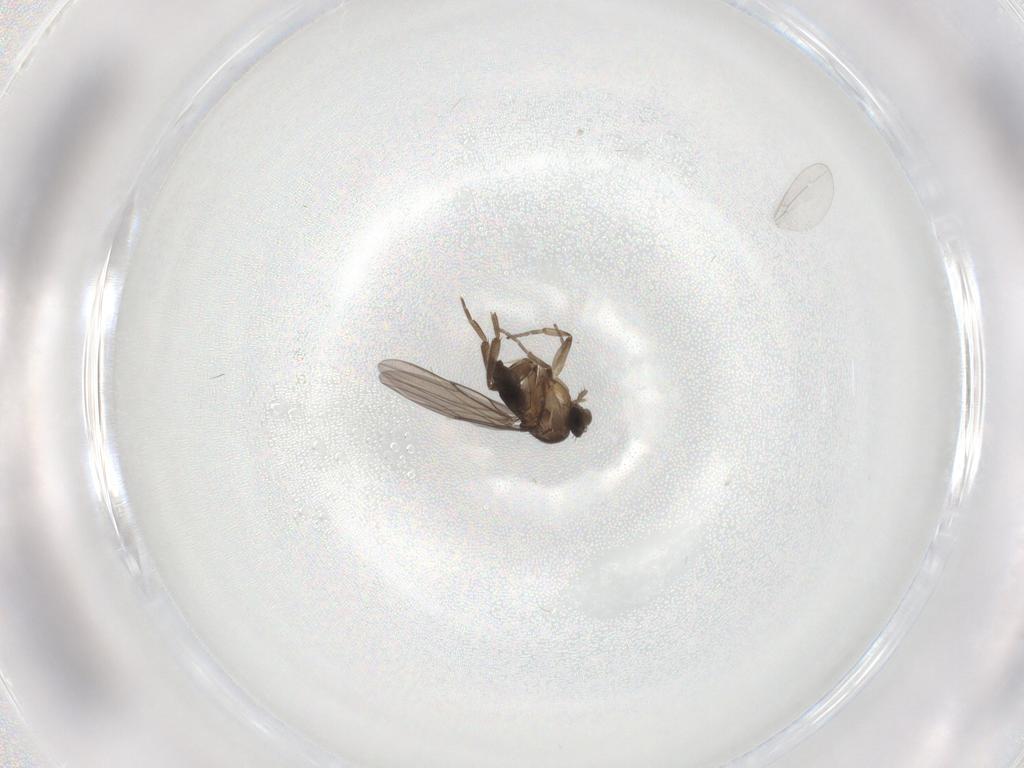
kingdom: Animalia
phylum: Arthropoda
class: Insecta
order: Diptera
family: Phoridae
